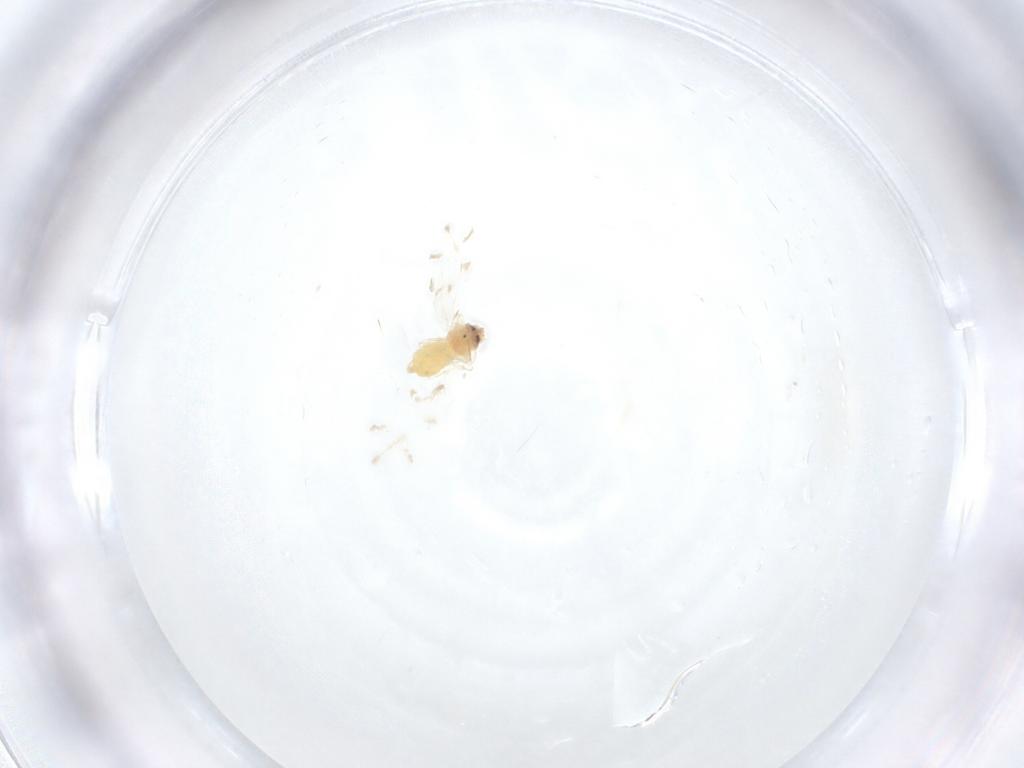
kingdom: Animalia
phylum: Arthropoda
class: Insecta
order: Hemiptera
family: Aleyrodidae
